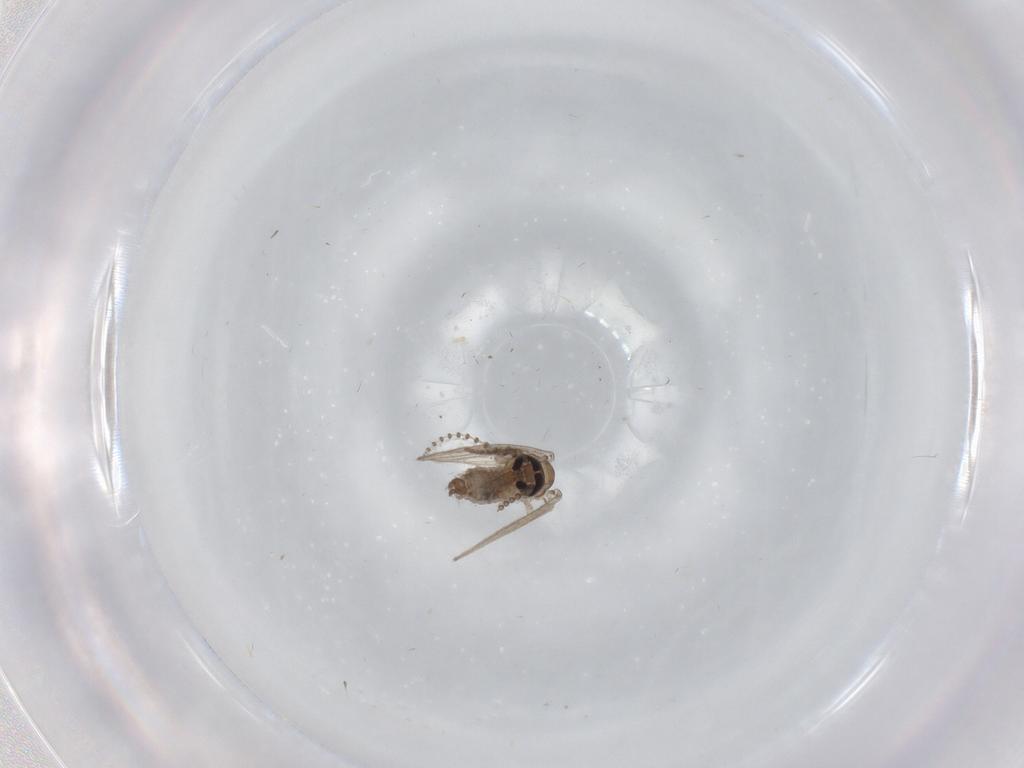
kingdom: Animalia
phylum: Arthropoda
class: Insecta
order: Diptera
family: Psychodidae
